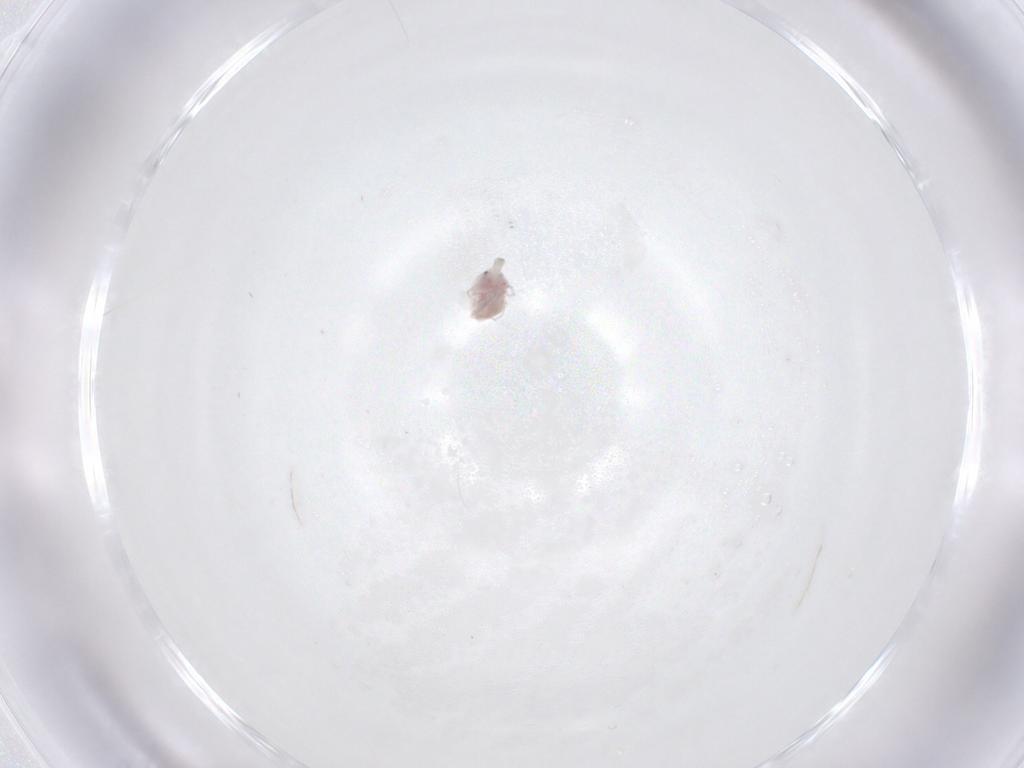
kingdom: Animalia
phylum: Arthropoda
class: Arachnida
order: Trombidiformes
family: Pionidae
